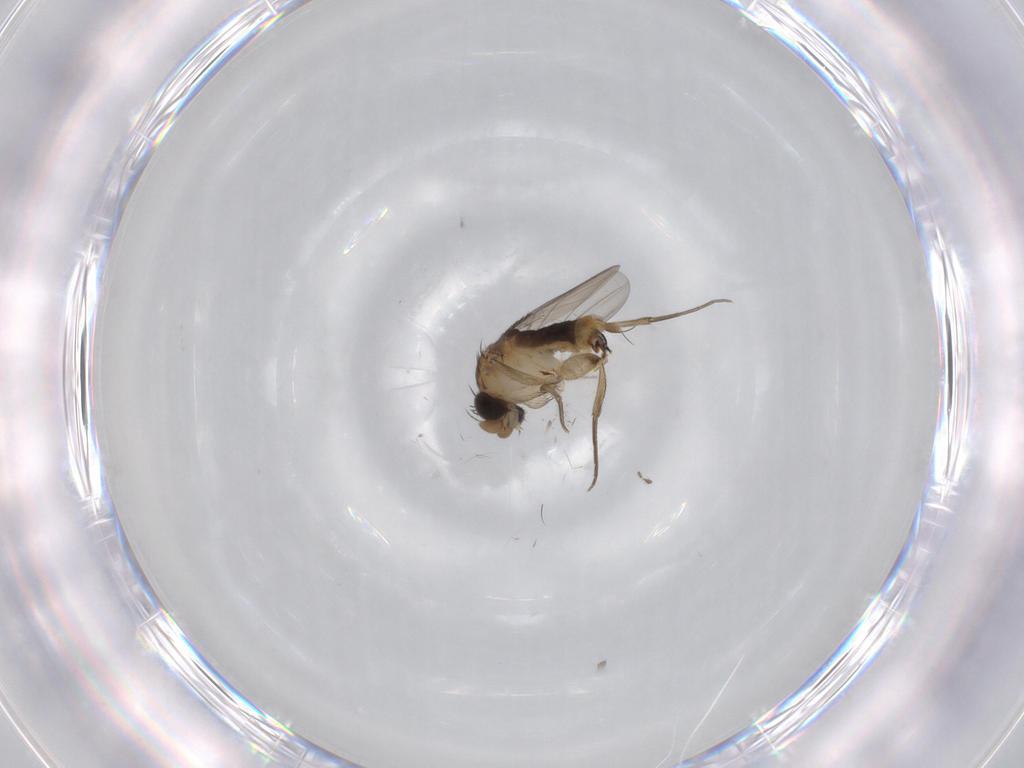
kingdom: Animalia
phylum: Arthropoda
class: Insecta
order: Diptera
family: Phoridae
